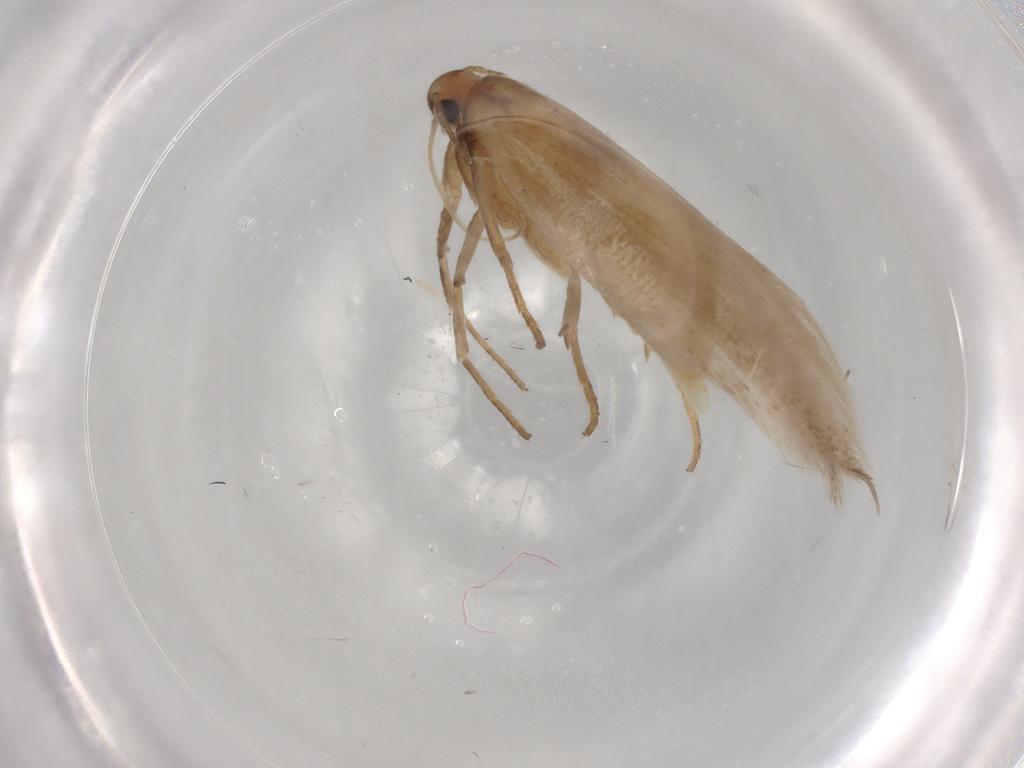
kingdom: Animalia
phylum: Arthropoda
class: Insecta
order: Lepidoptera
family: Gelechiidae
